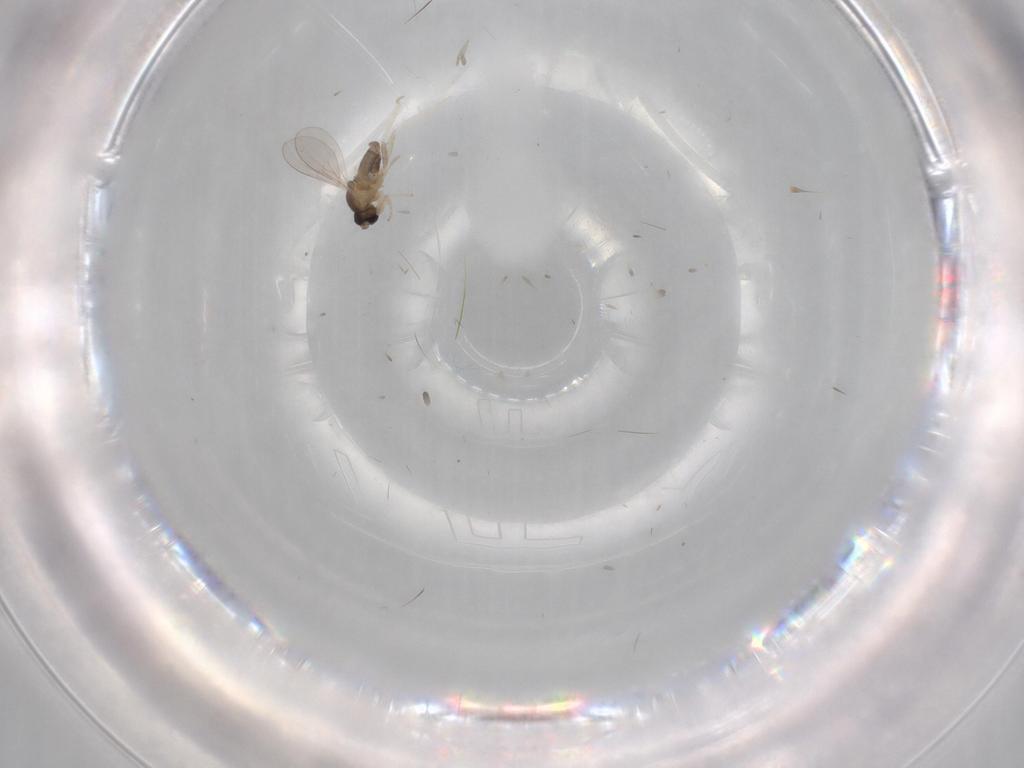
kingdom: Animalia
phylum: Arthropoda
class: Insecta
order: Diptera
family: Cecidomyiidae
